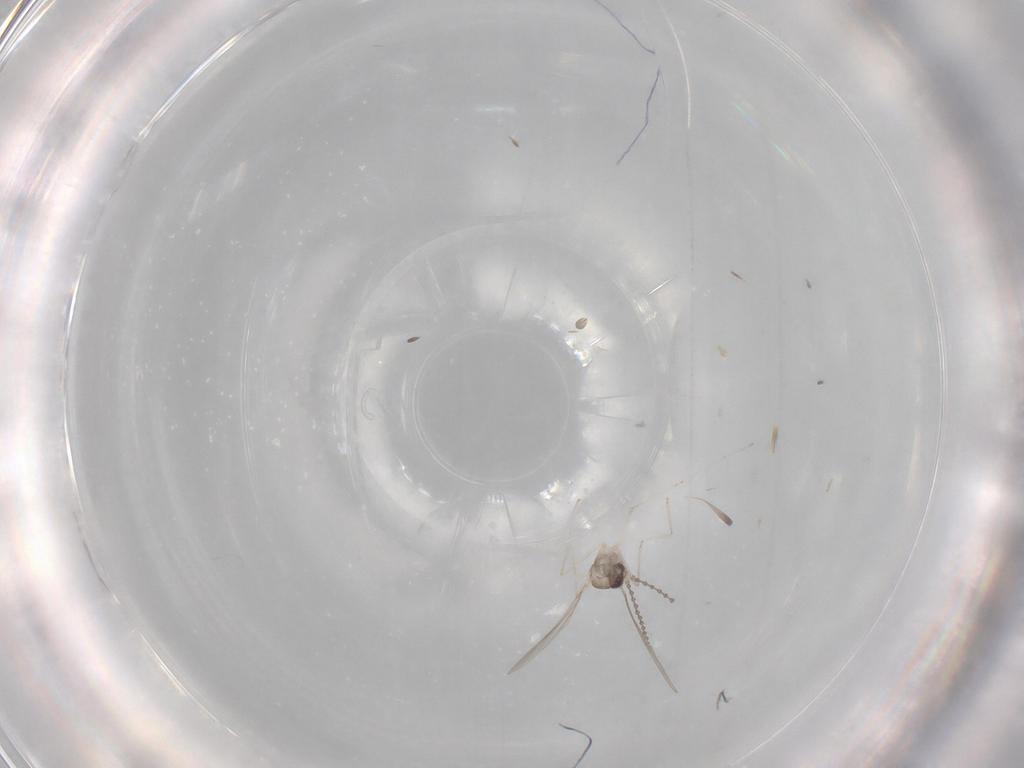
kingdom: Animalia
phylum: Arthropoda
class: Insecta
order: Diptera
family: Cecidomyiidae
